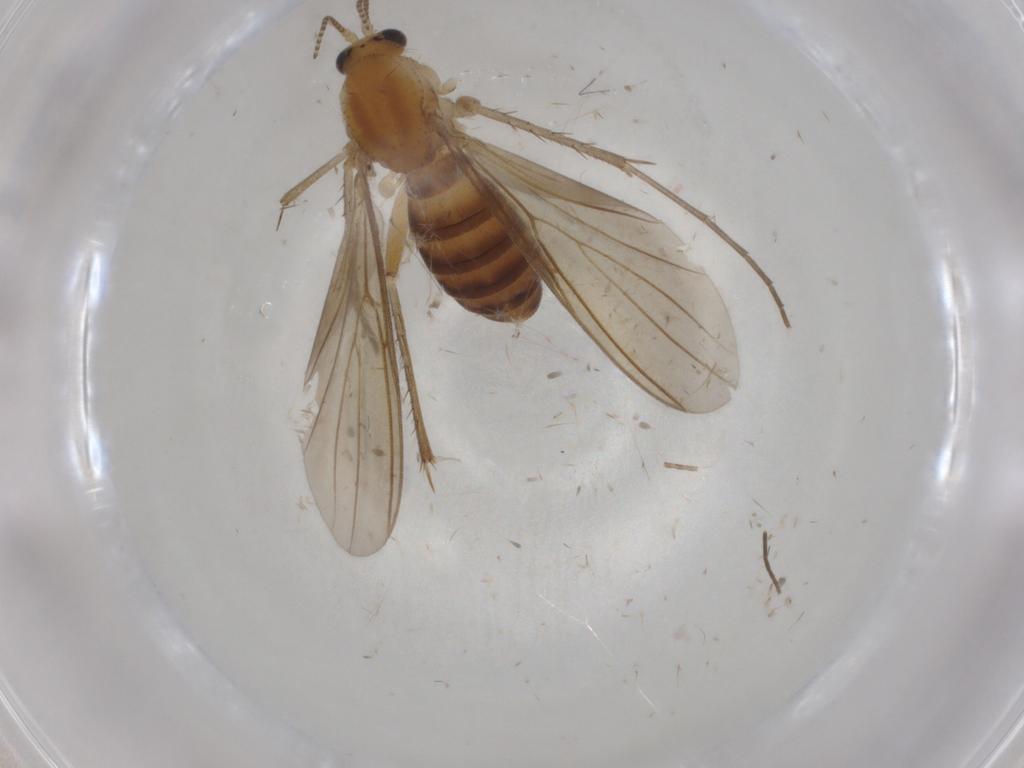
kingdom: Animalia
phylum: Arthropoda
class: Insecta
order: Diptera
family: Mycetophilidae
